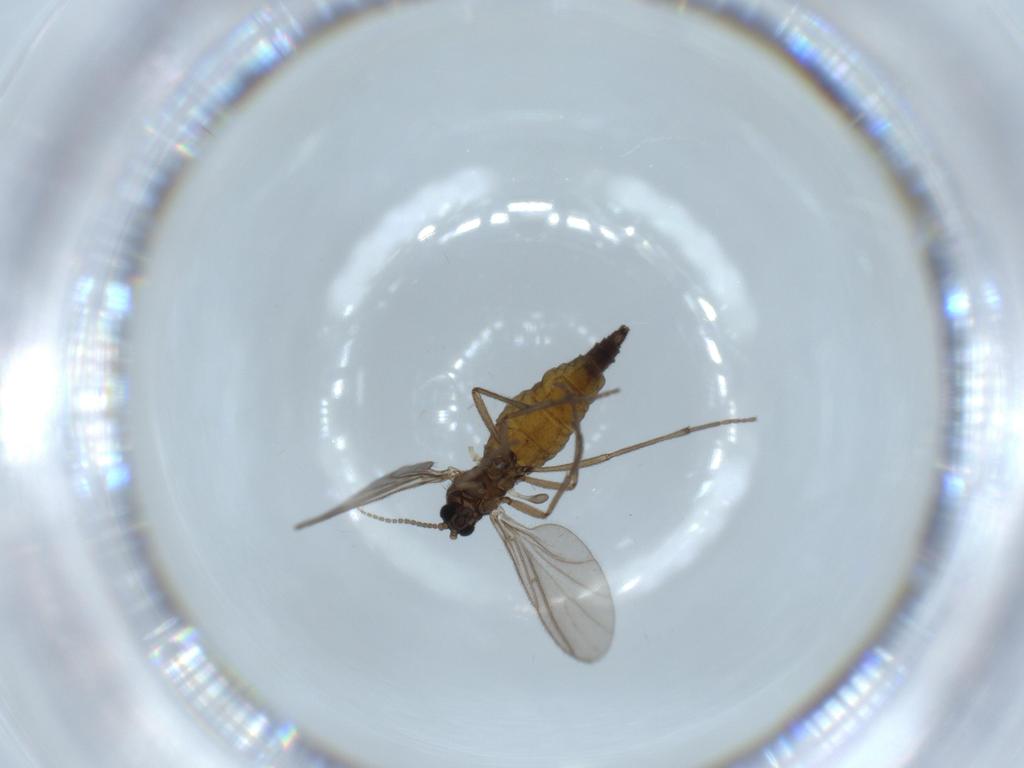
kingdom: Animalia
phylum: Arthropoda
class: Insecta
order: Diptera
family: Sciaridae
